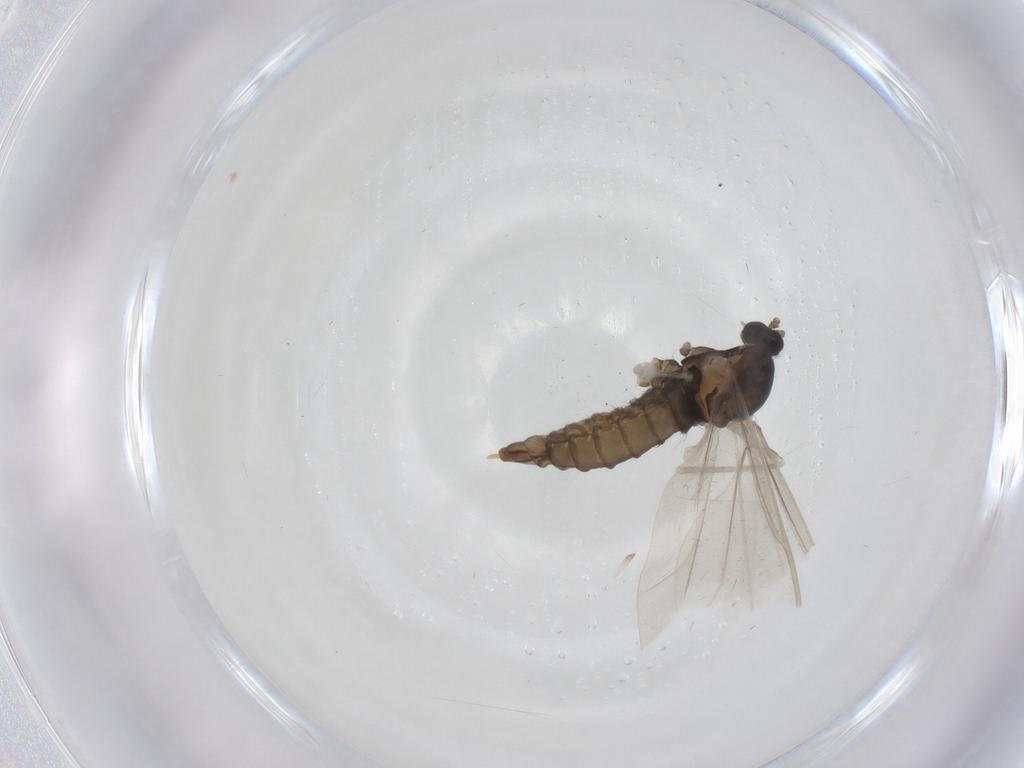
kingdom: Animalia
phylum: Arthropoda
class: Insecta
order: Diptera
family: Cecidomyiidae
